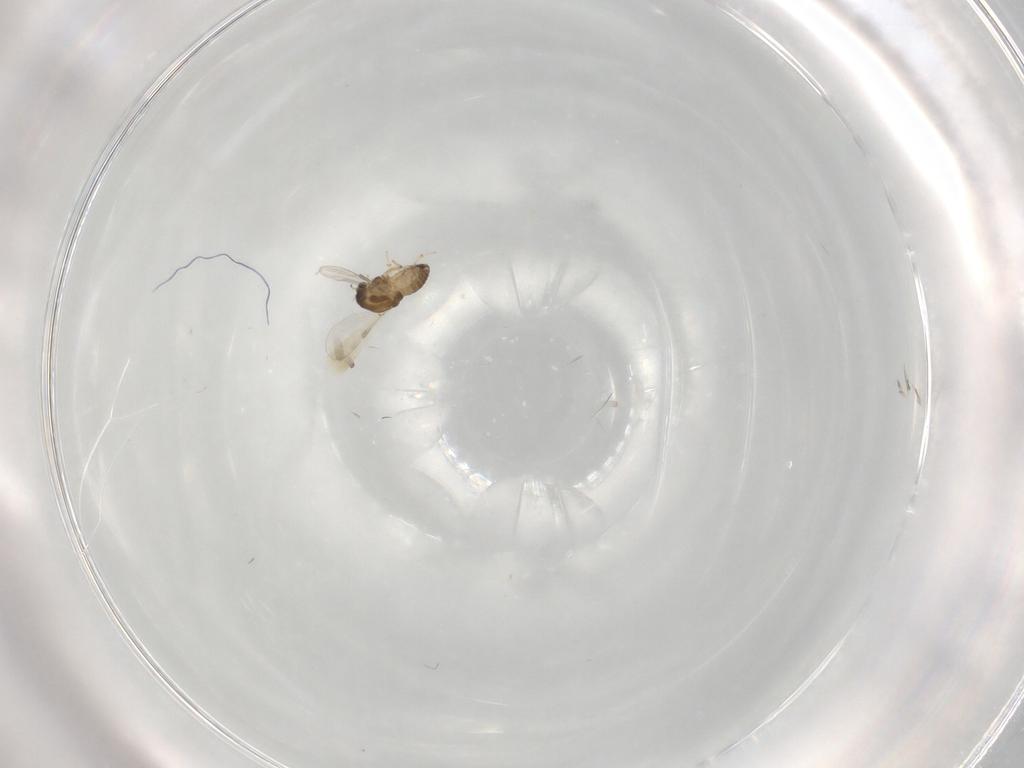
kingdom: Animalia
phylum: Arthropoda
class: Insecta
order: Diptera
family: Chironomidae
